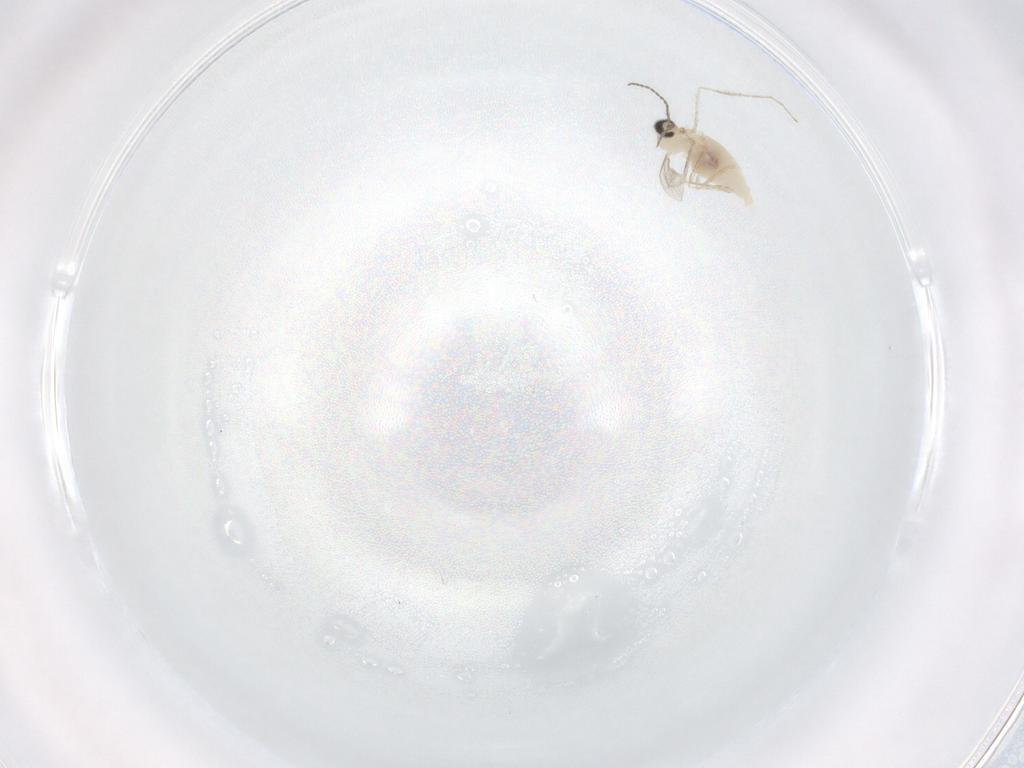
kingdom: Animalia
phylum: Arthropoda
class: Insecta
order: Diptera
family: Cecidomyiidae
